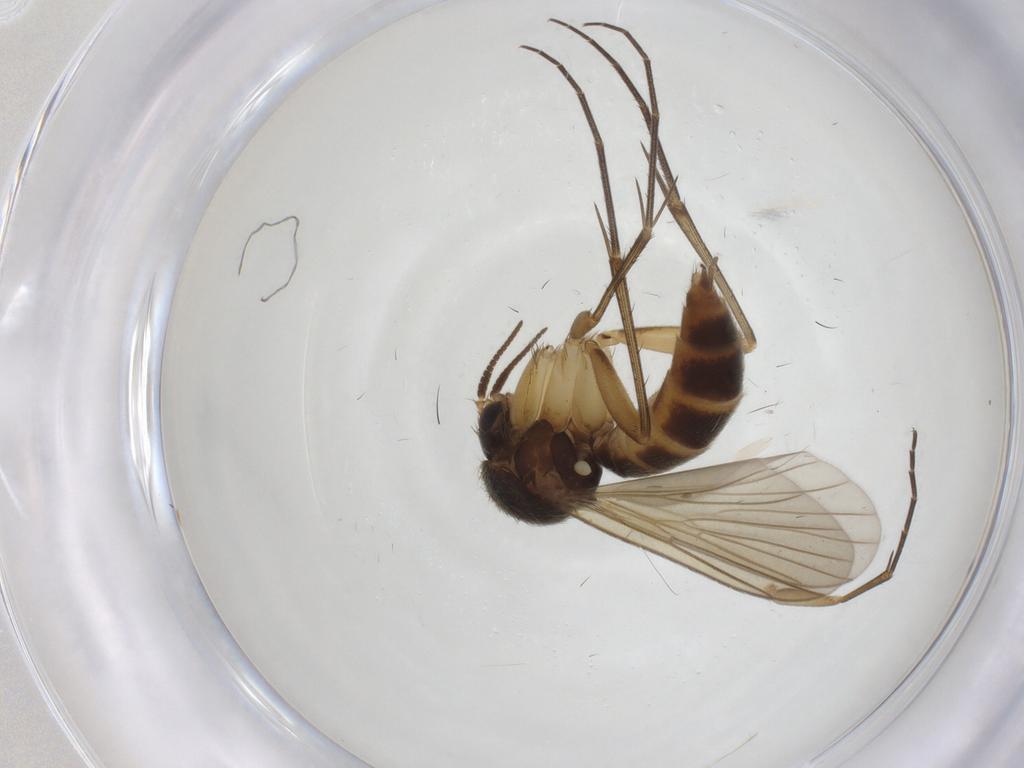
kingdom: Animalia
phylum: Arthropoda
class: Insecta
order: Diptera
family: Mycetophilidae
